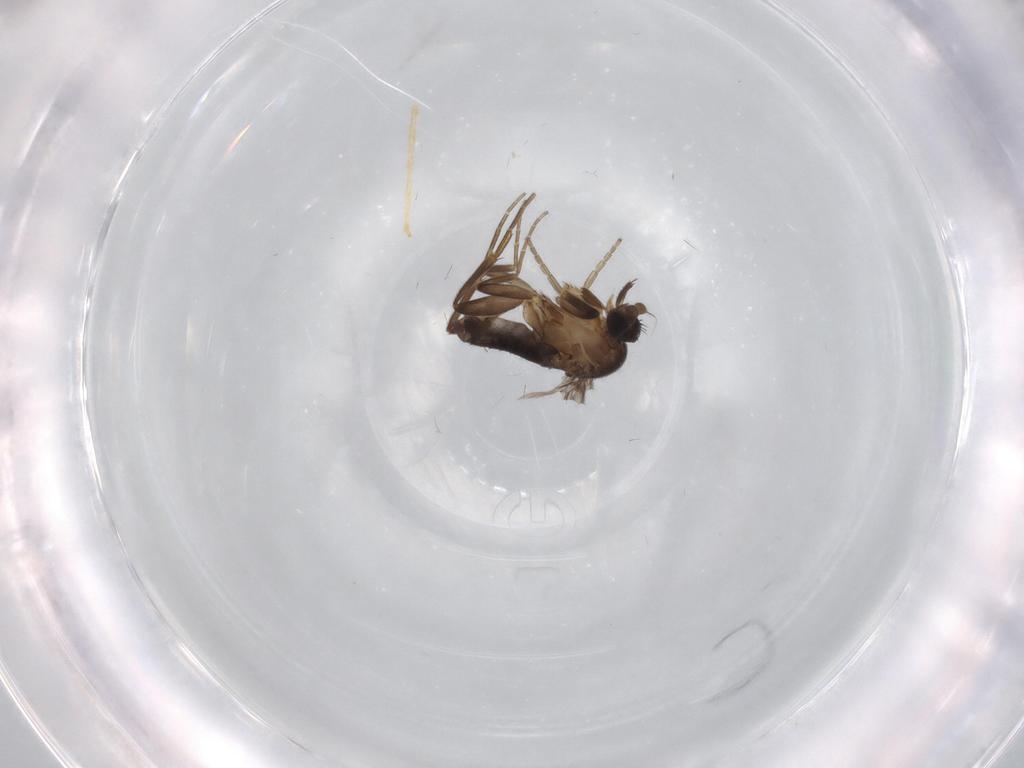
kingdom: Animalia
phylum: Arthropoda
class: Insecta
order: Diptera
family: Chironomidae
